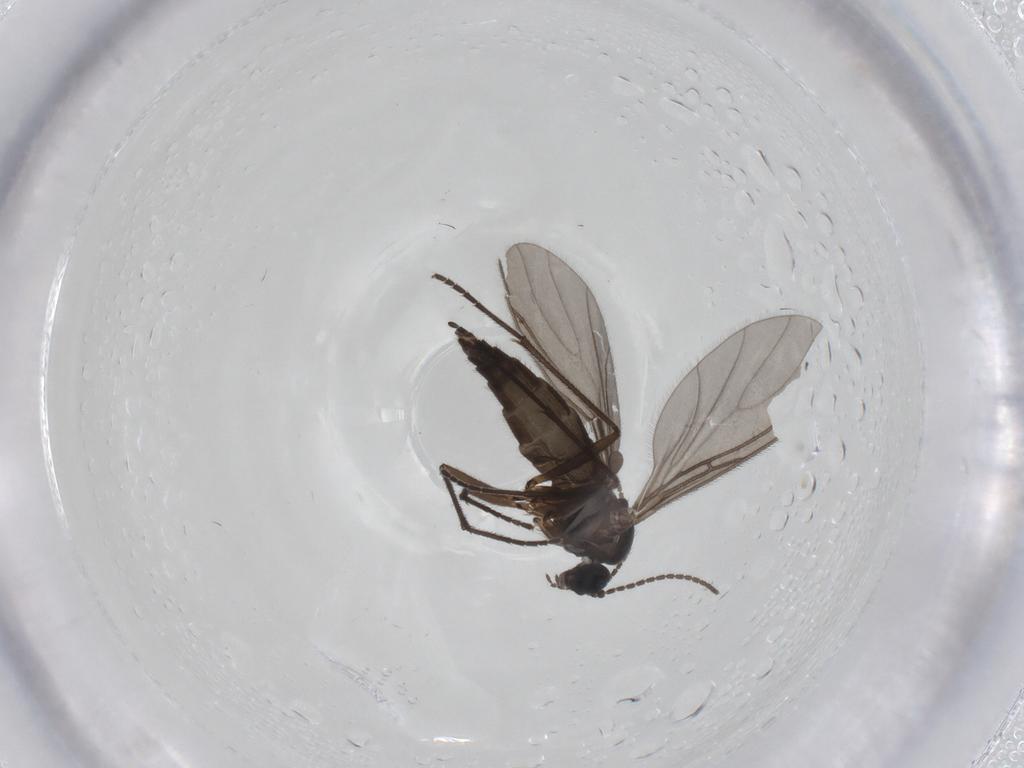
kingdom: Animalia
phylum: Arthropoda
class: Insecta
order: Diptera
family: Sciaridae
